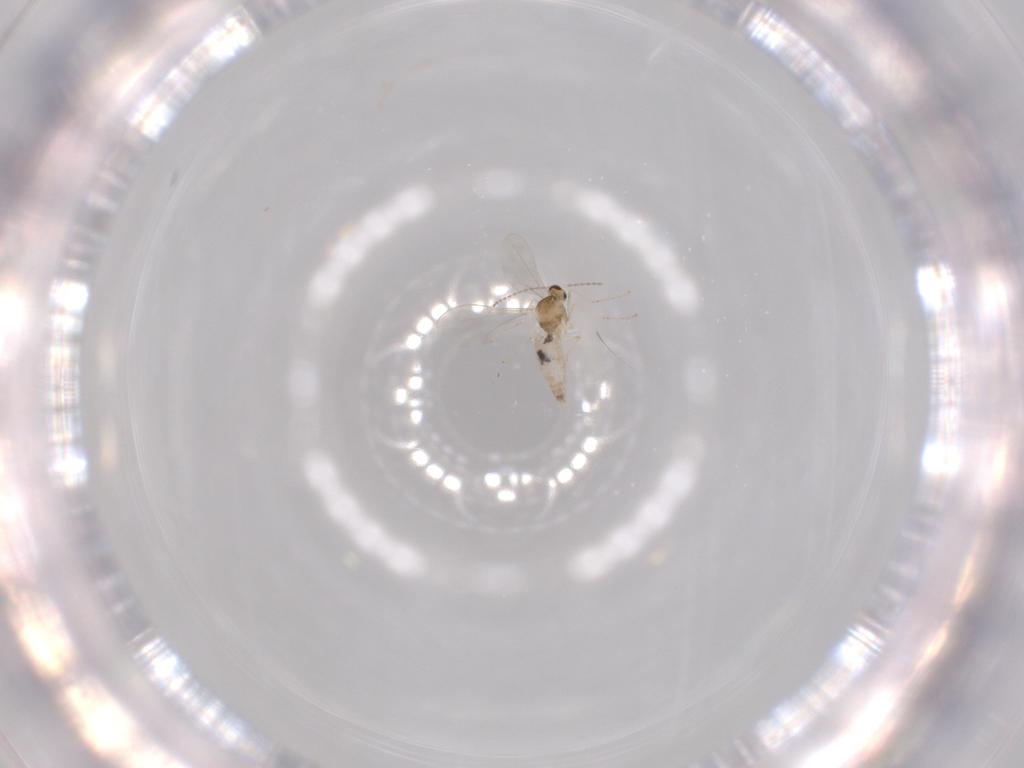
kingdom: Animalia
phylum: Arthropoda
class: Insecta
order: Diptera
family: Cecidomyiidae
